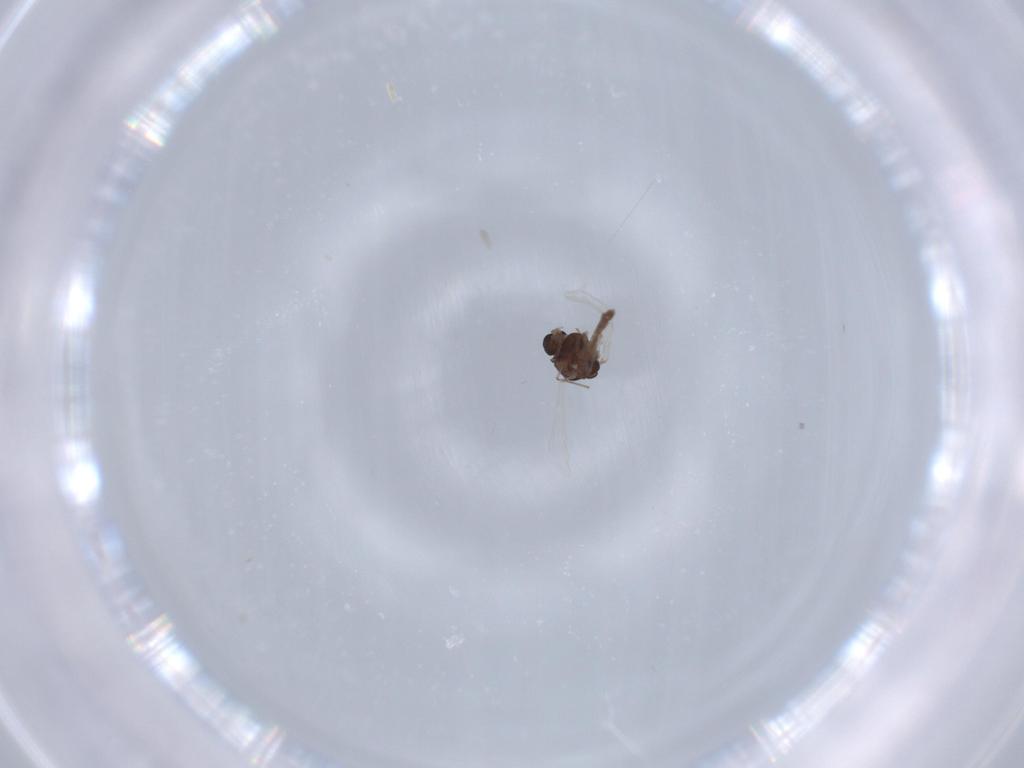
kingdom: Animalia
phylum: Arthropoda
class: Insecta
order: Diptera
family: Chironomidae
